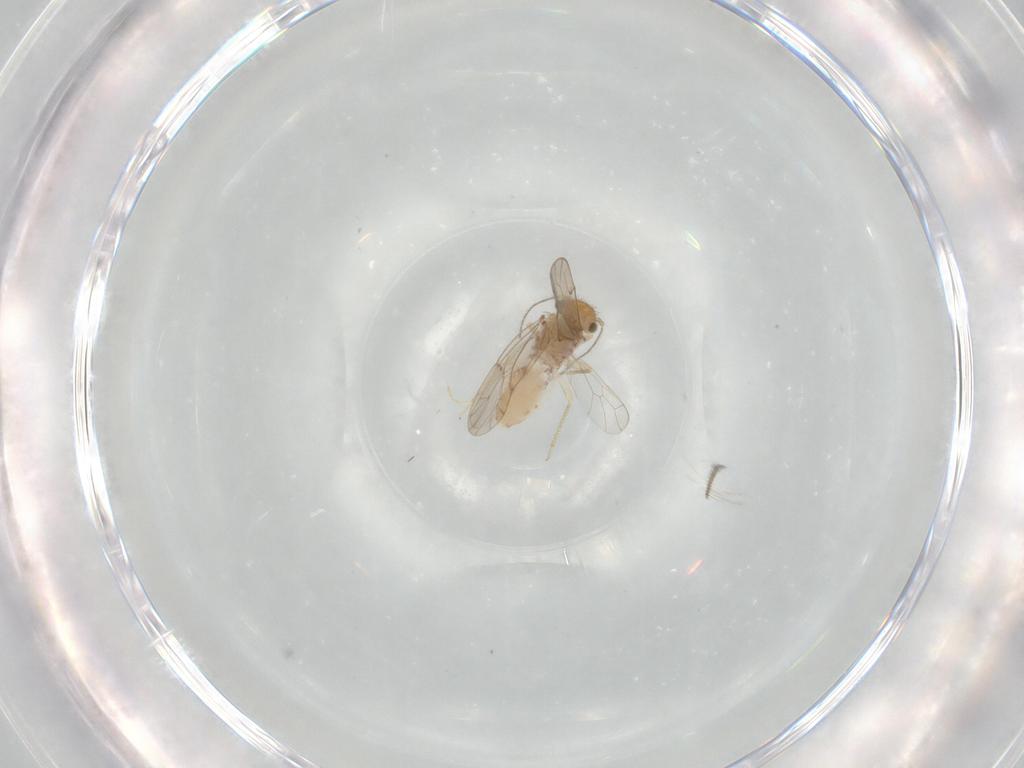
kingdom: Animalia
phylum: Arthropoda
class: Insecta
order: Psocodea
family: Ectopsocidae
